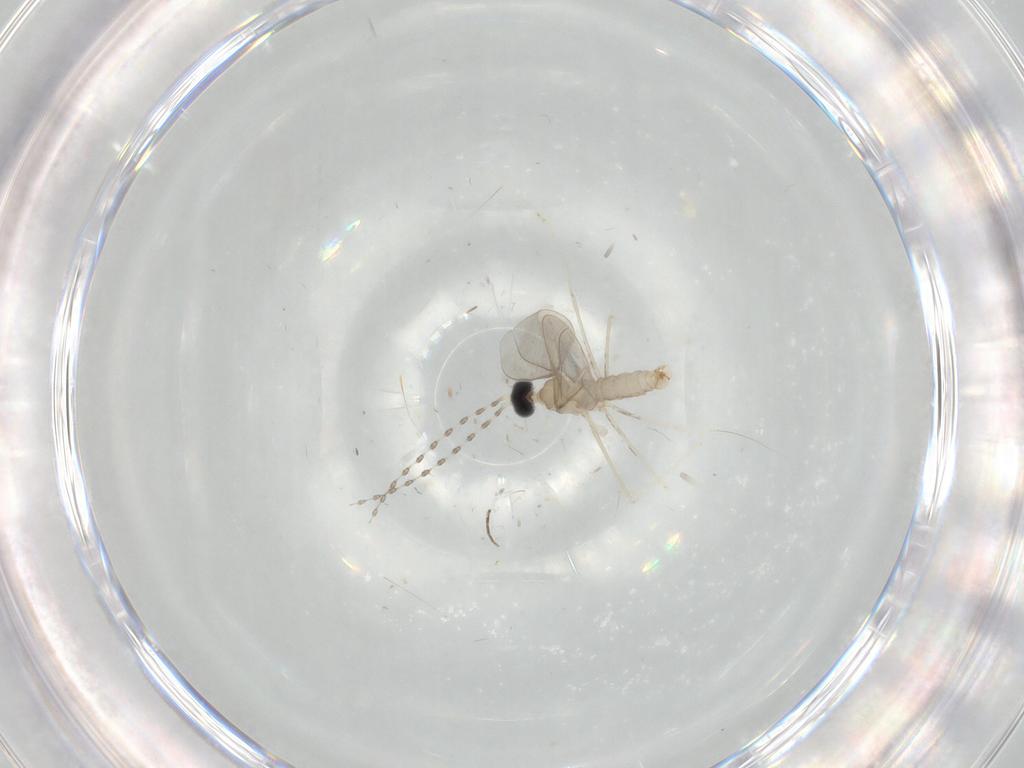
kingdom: Animalia
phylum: Arthropoda
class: Insecta
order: Diptera
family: Cecidomyiidae
